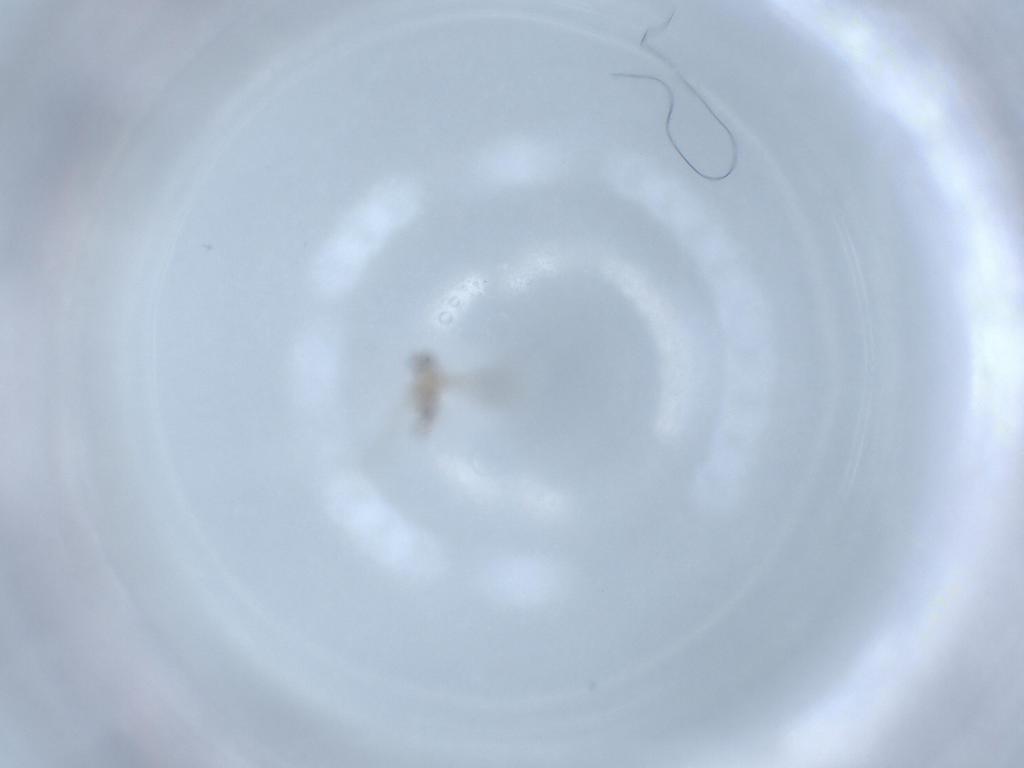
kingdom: Animalia
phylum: Arthropoda
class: Insecta
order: Diptera
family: Cecidomyiidae
